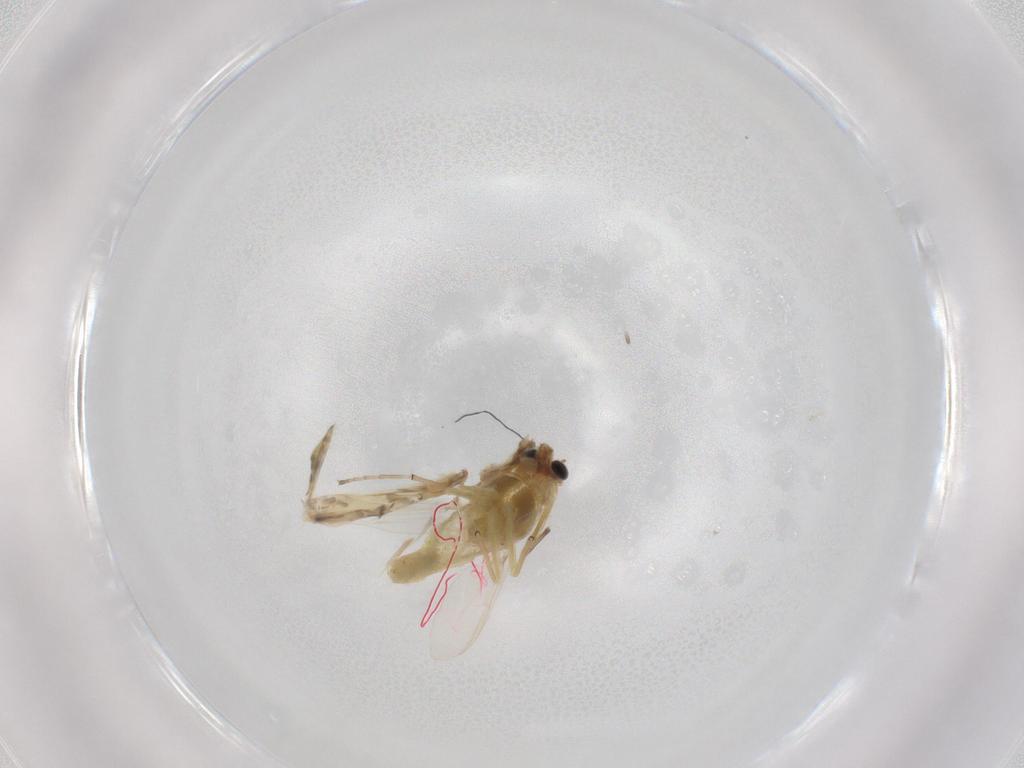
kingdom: Animalia
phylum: Arthropoda
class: Insecta
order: Diptera
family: Chironomidae
